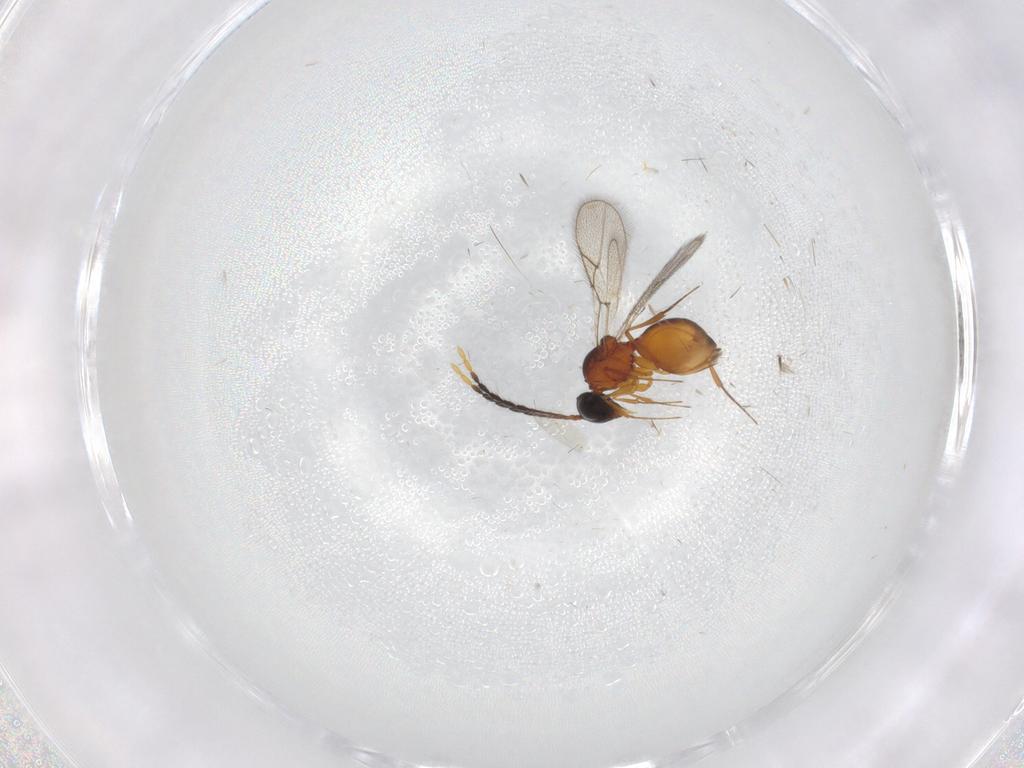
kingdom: Animalia
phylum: Arthropoda
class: Insecta
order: Hymenoptera
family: Figitidae
